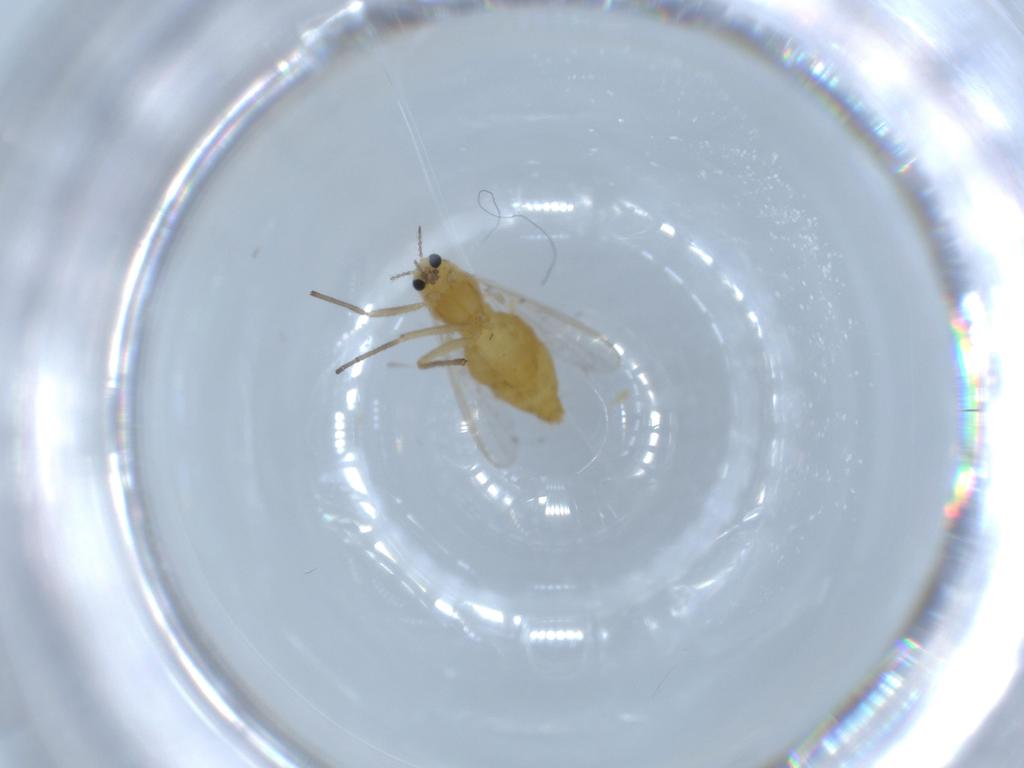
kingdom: Animalia
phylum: Arthropoda
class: Insecta
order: Diptera
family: Chironomidae
